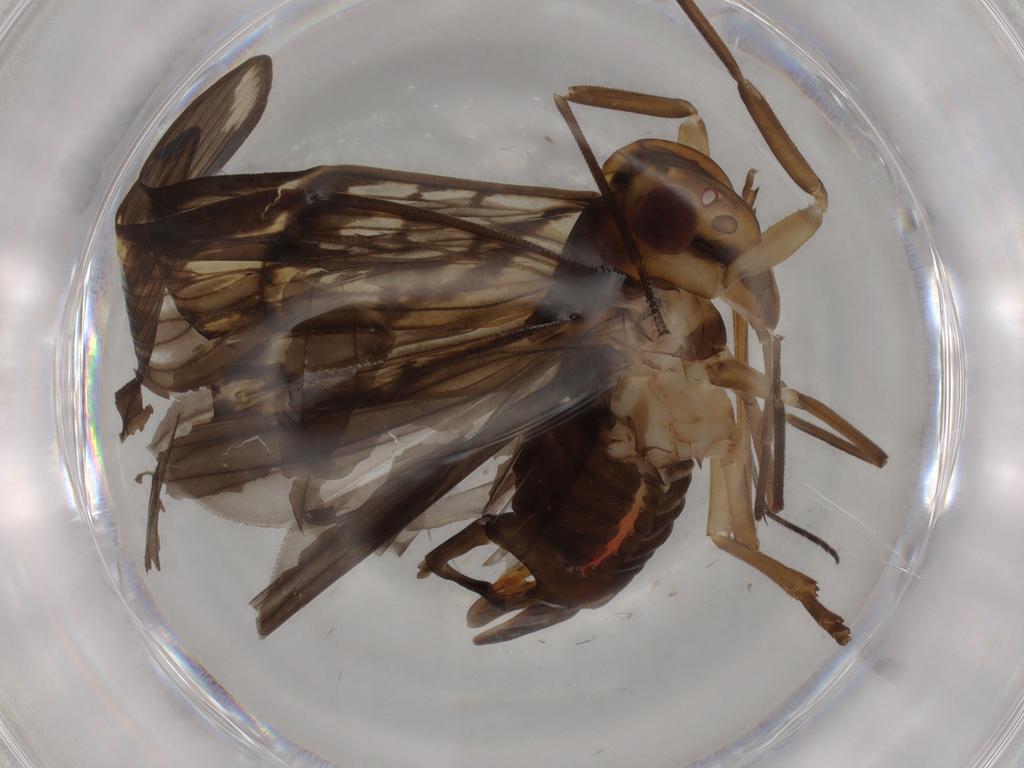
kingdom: Animalia
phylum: Arthropoda
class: Insecta
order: Hemiptera
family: Cixiidae
